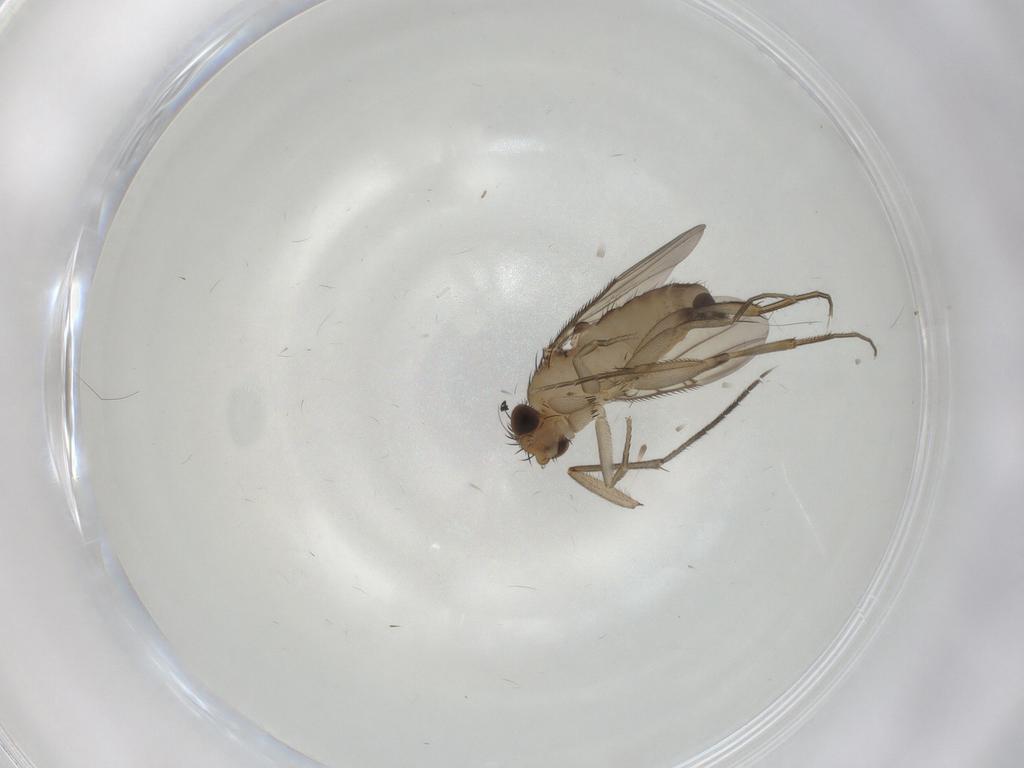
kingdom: Animalia
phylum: Arthropoda
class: Insecta
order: Diptera
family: Phoridae
